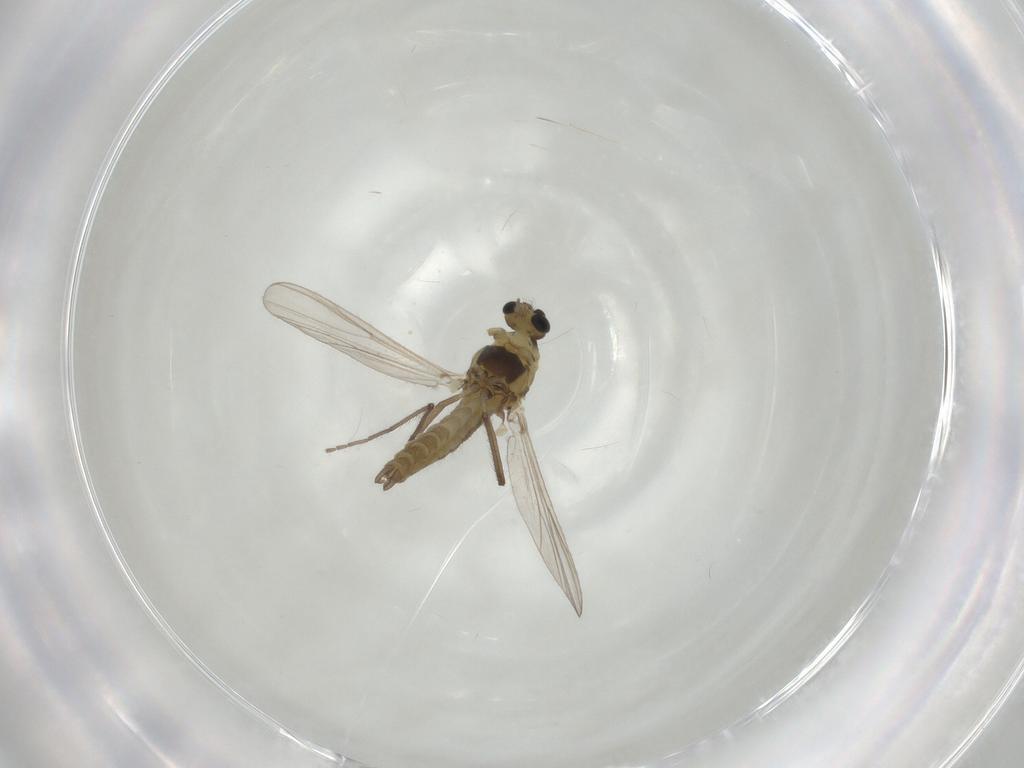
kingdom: Animalia
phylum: Arthropoda
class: Insecta
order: Diptera
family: Chironomidae
